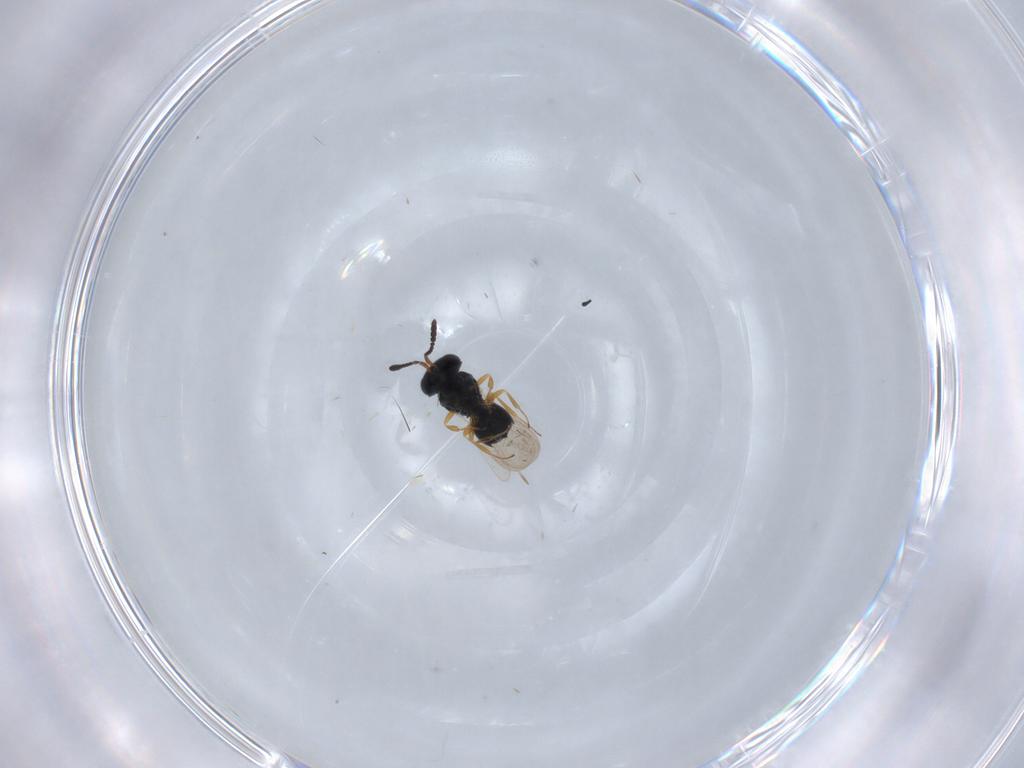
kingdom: Animalia
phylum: Arthropoda
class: Insecta
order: Hymenoptera
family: Scelionidae
